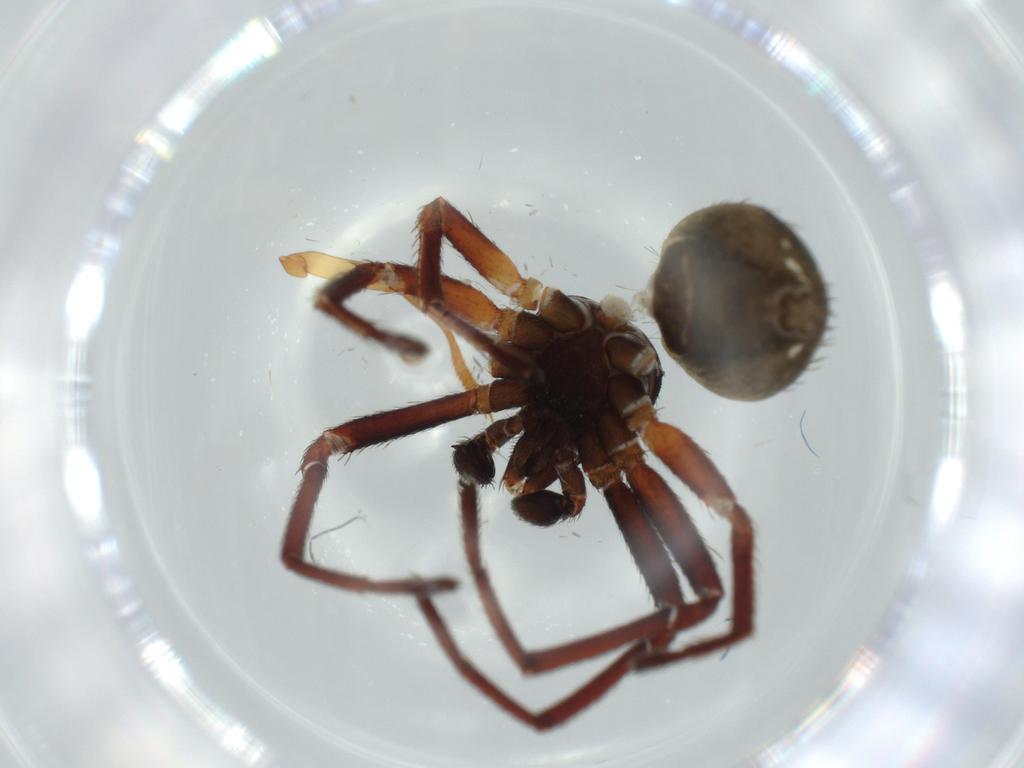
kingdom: Animalia
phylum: Arthropoda
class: Arachnida
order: Araneae
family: Thomisidae
